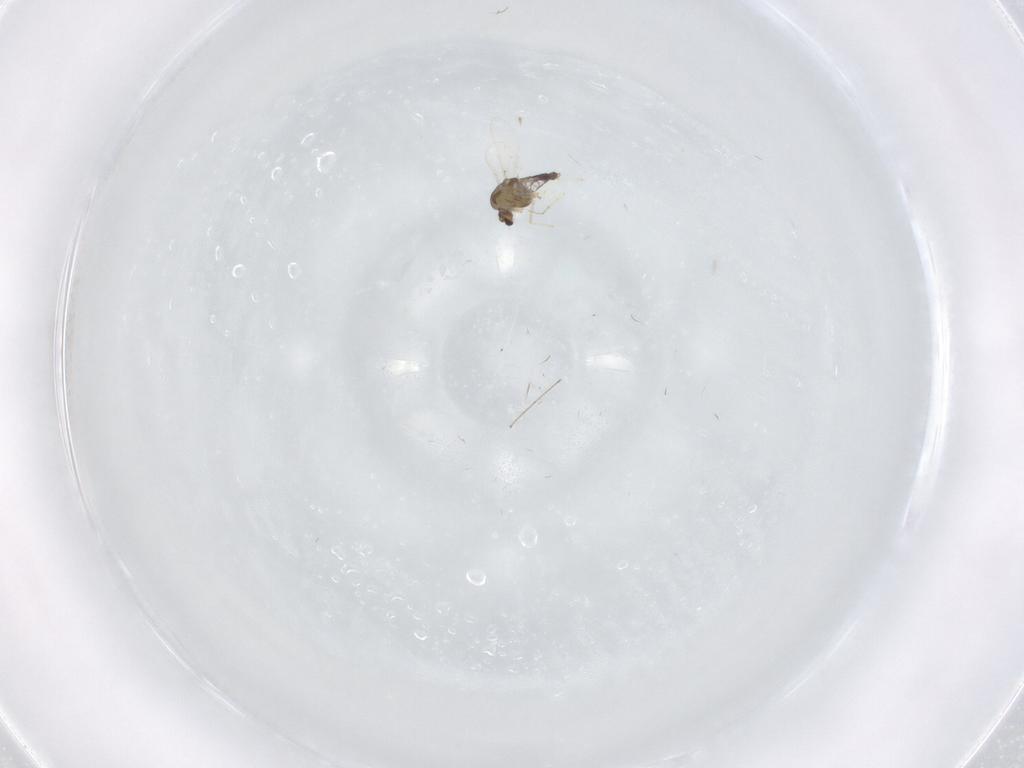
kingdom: Animalia
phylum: Arthropoda
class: Insecta
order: Diptera
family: Chironomidae
